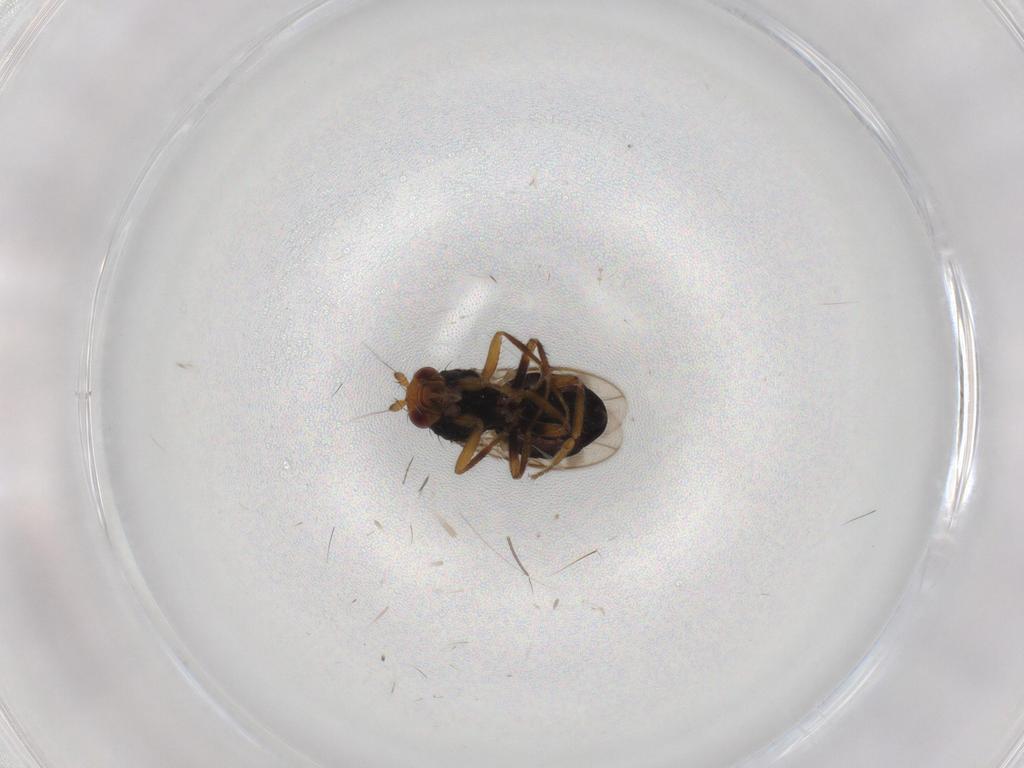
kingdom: Animalia
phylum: Arthropoda
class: Insecta
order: Diptera
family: Sphaeroceridae
